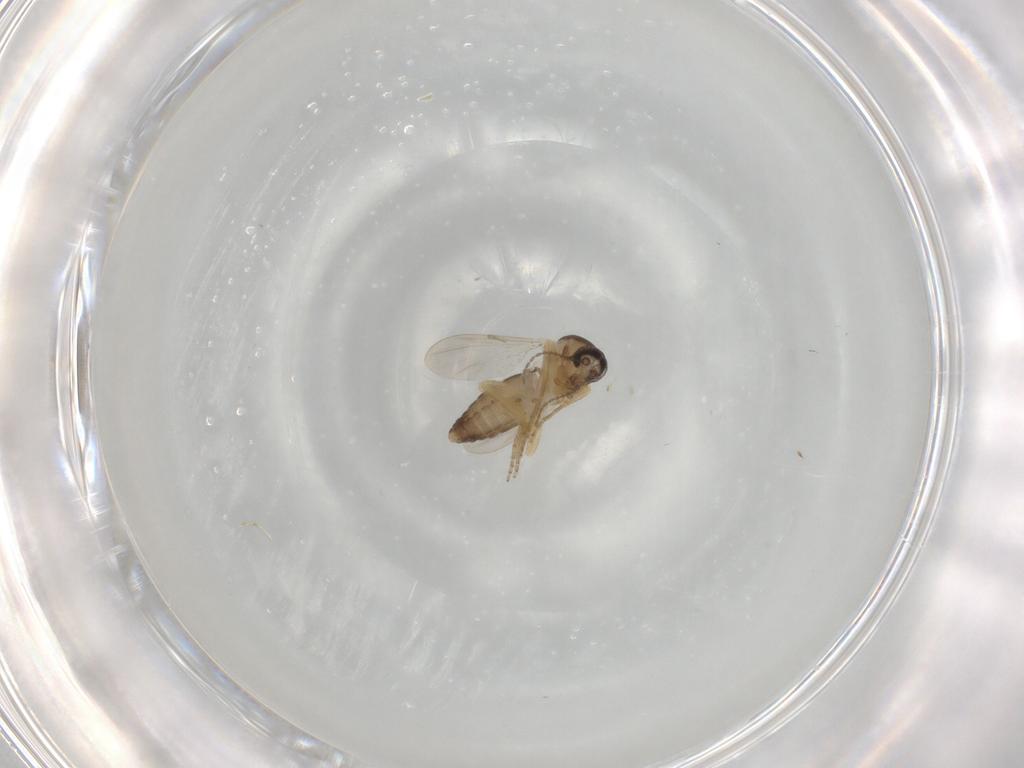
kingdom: Animalia
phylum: Arthropoda
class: Insecta
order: Diptera
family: Ceratopogonidae
